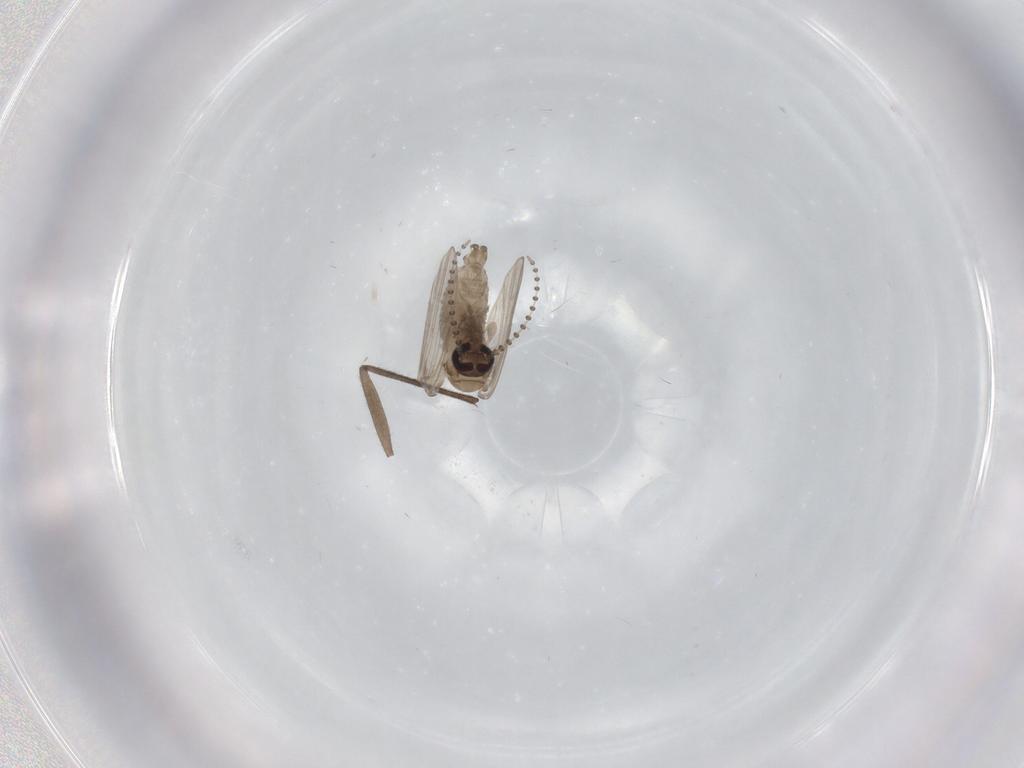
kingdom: Animalia
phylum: Arthropoda
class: Insecta
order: Diptera
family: Psychodidae
